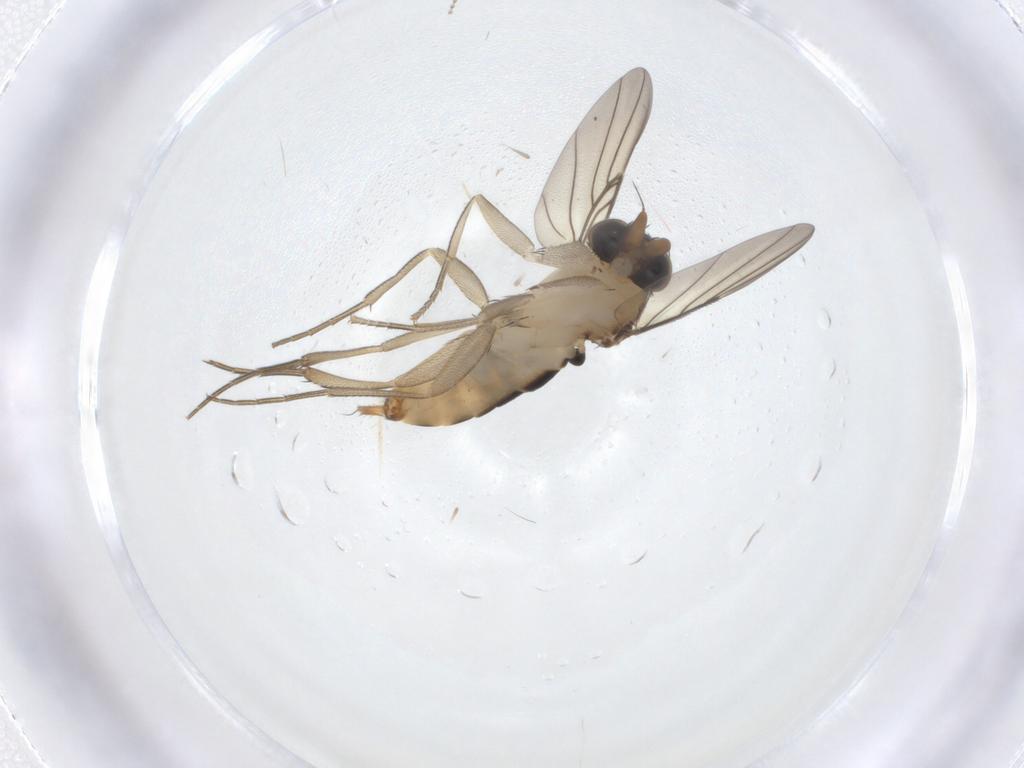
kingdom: Animalia
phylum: Arthropoda
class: Insecta
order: Diptera
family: Phoridae
